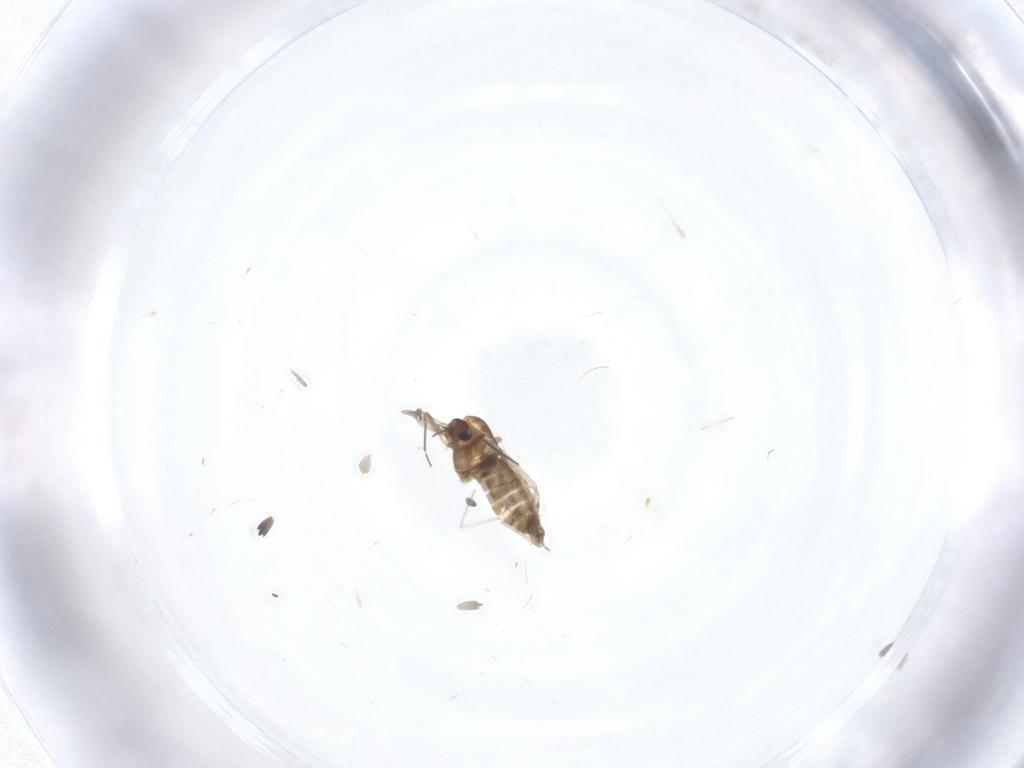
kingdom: Animalia
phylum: Arthropoda
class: Insecta
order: Diptera
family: Chironomidae
